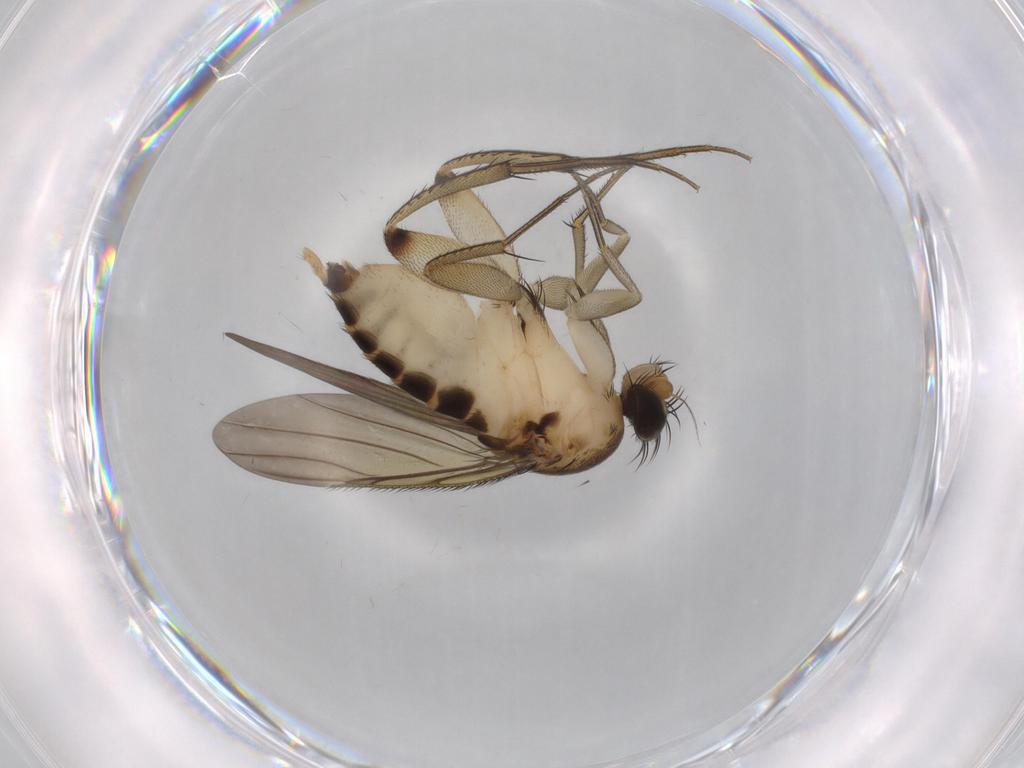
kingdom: Animalia
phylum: Arthropoda
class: Insecta
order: Diptera
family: Phoridae
